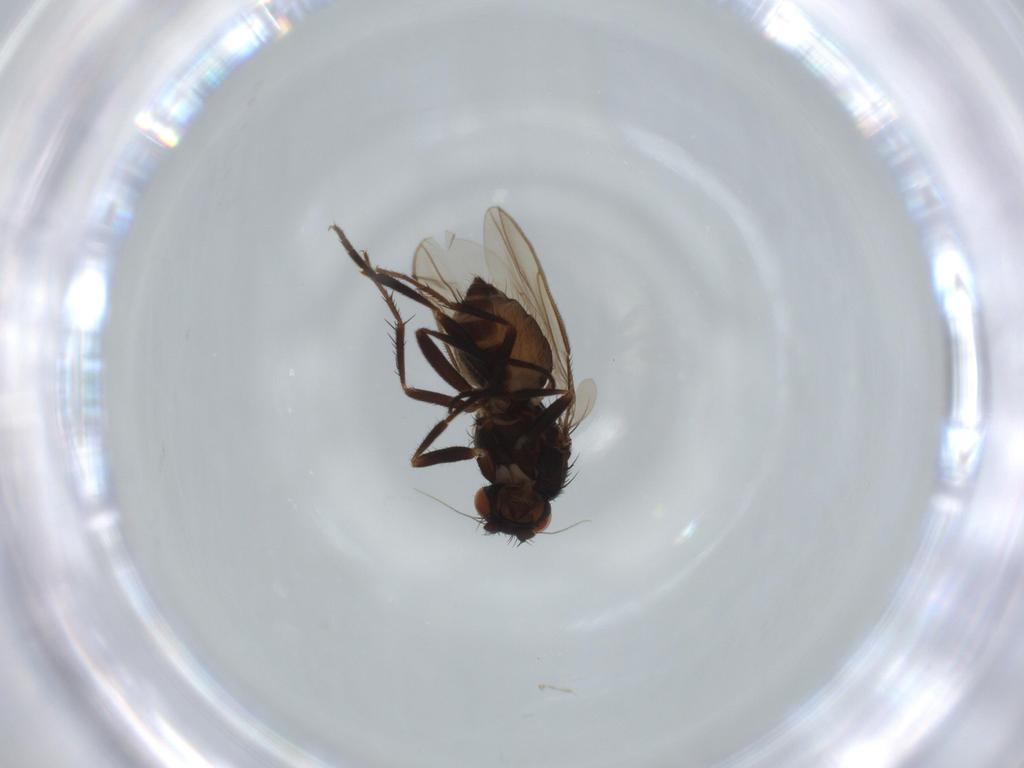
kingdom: Animalia
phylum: Arthropoda
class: Insecta
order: Diptera
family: Sphaeroceridae
